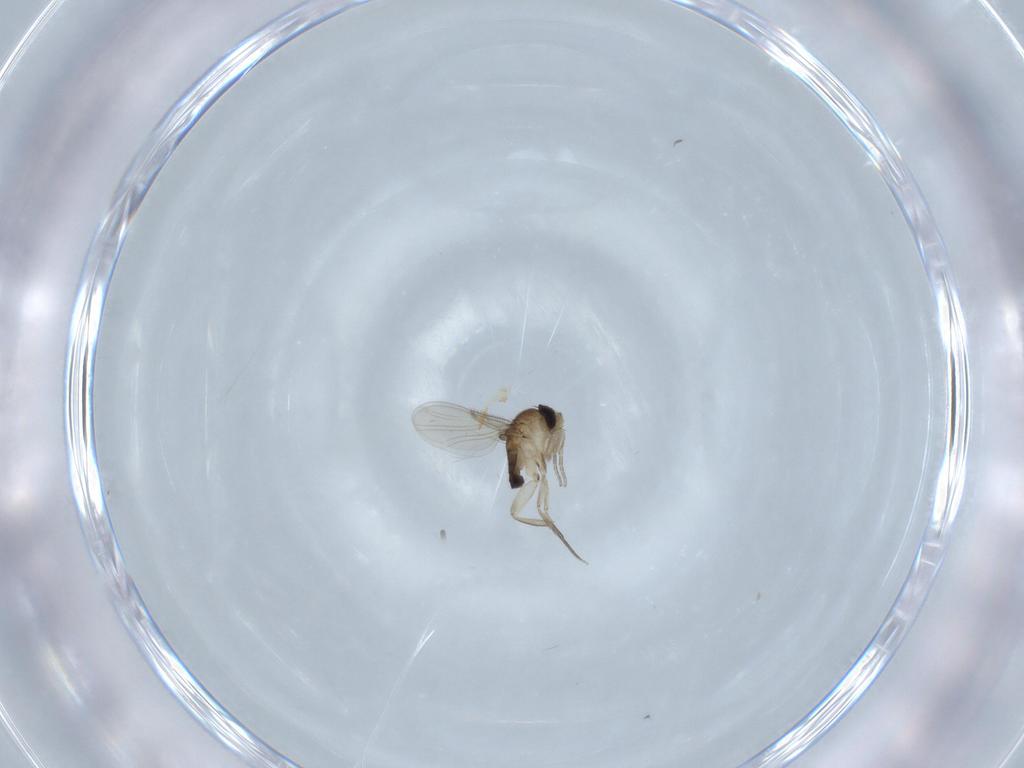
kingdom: Animalia
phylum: Arthropoda
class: Insecta
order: Diptera
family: Phoridae
